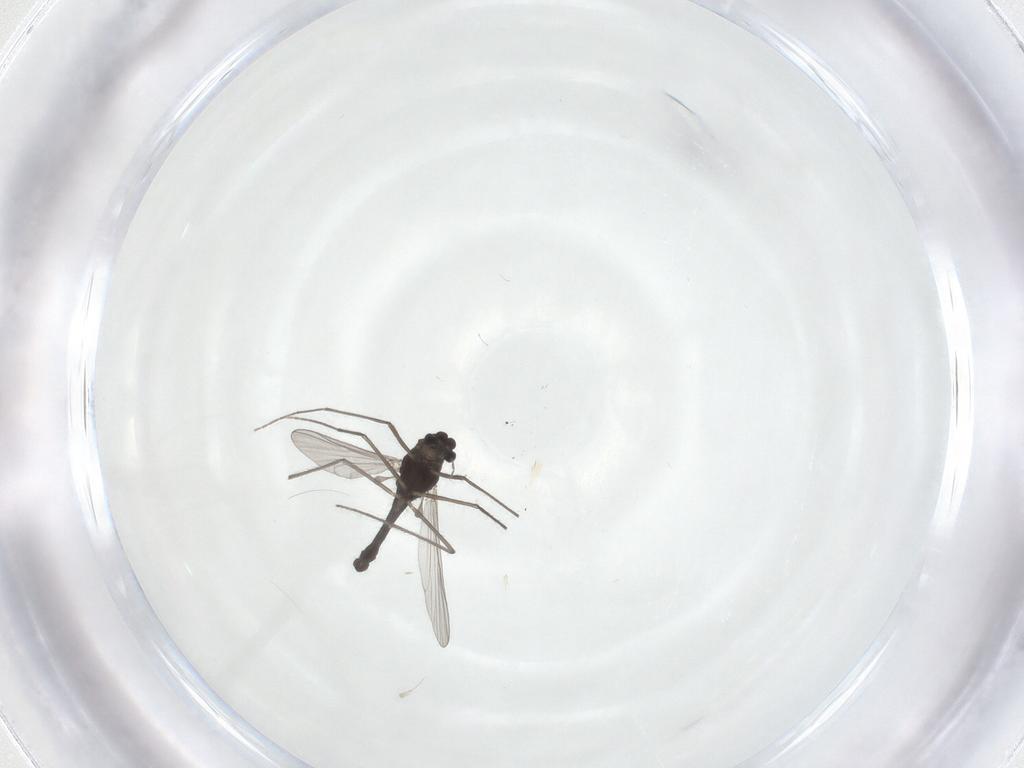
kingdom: Animalia
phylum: Arthropoda
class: Insecta
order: Diptera
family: Chironomidae
